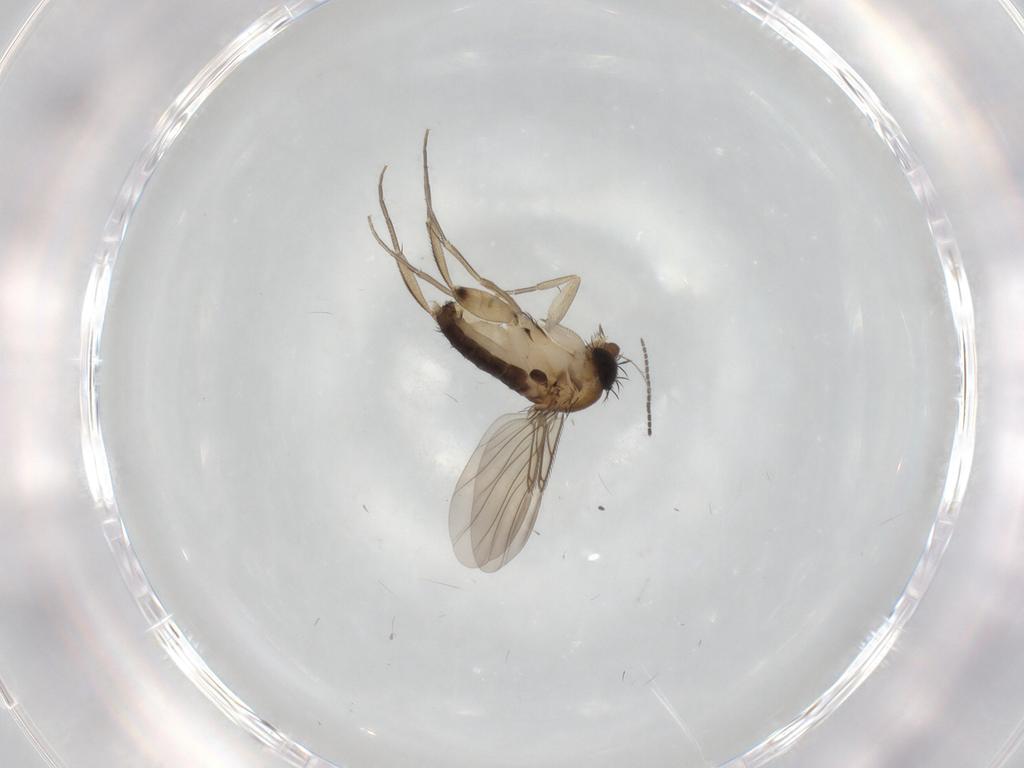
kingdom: Animalia
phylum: Arthropoda
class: Insecta
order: Diptera
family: Phoridae
